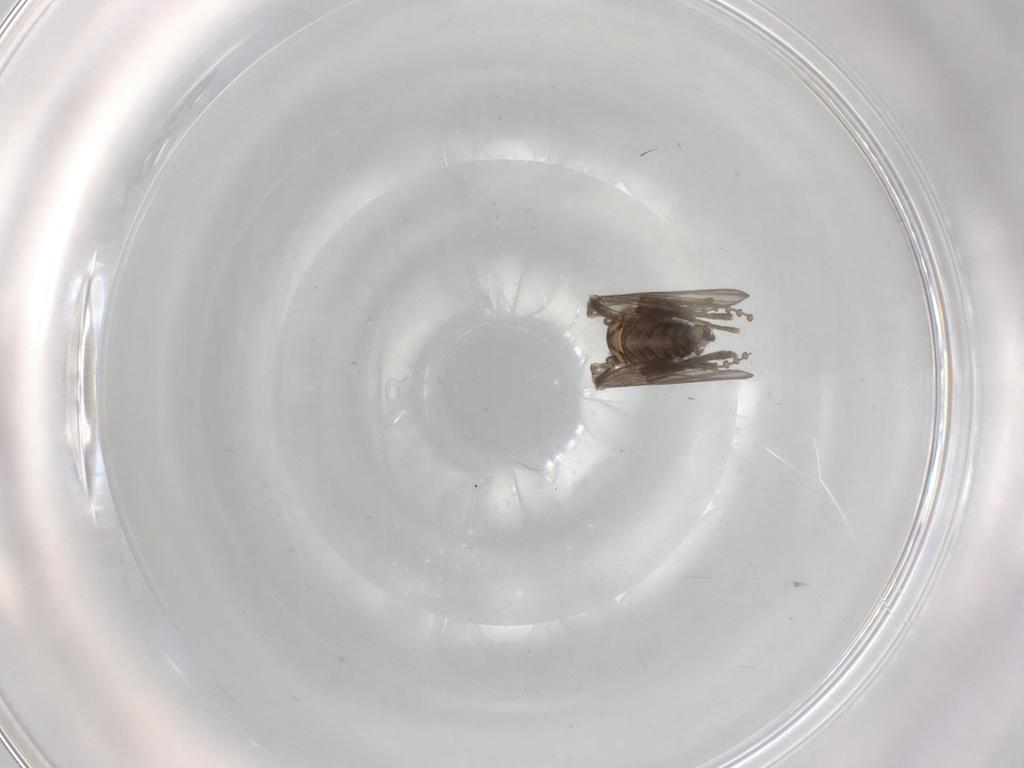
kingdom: Animalia
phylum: Arthropoda
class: Insecta
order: Diptera
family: Psychodidae
